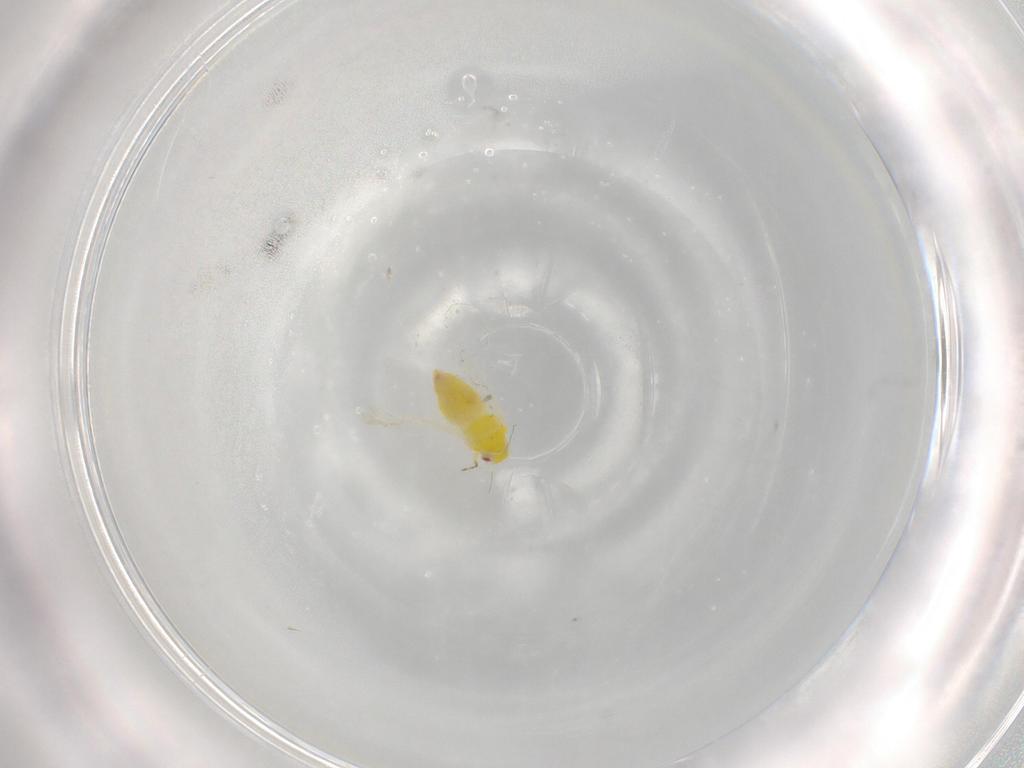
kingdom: Animalia
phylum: Arthropoda
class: Insecta
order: Hemiptera
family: Aleyrodidae
